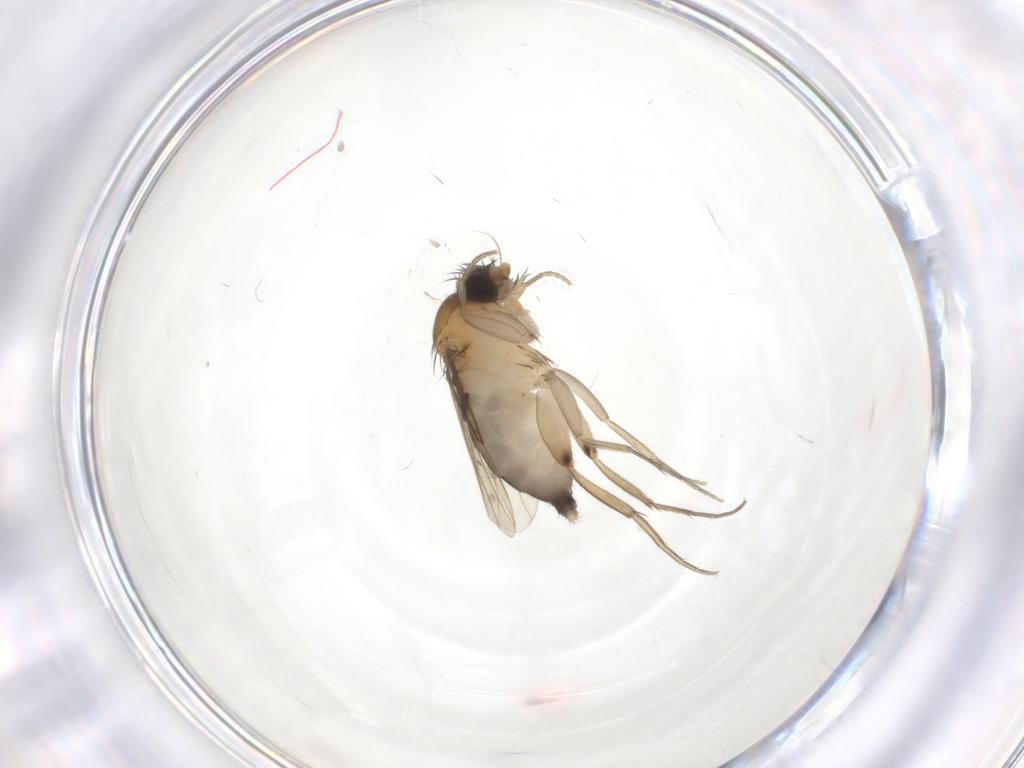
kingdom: Animalia
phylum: Arthropoda
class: Insecta
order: Diptera
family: Phoridae
